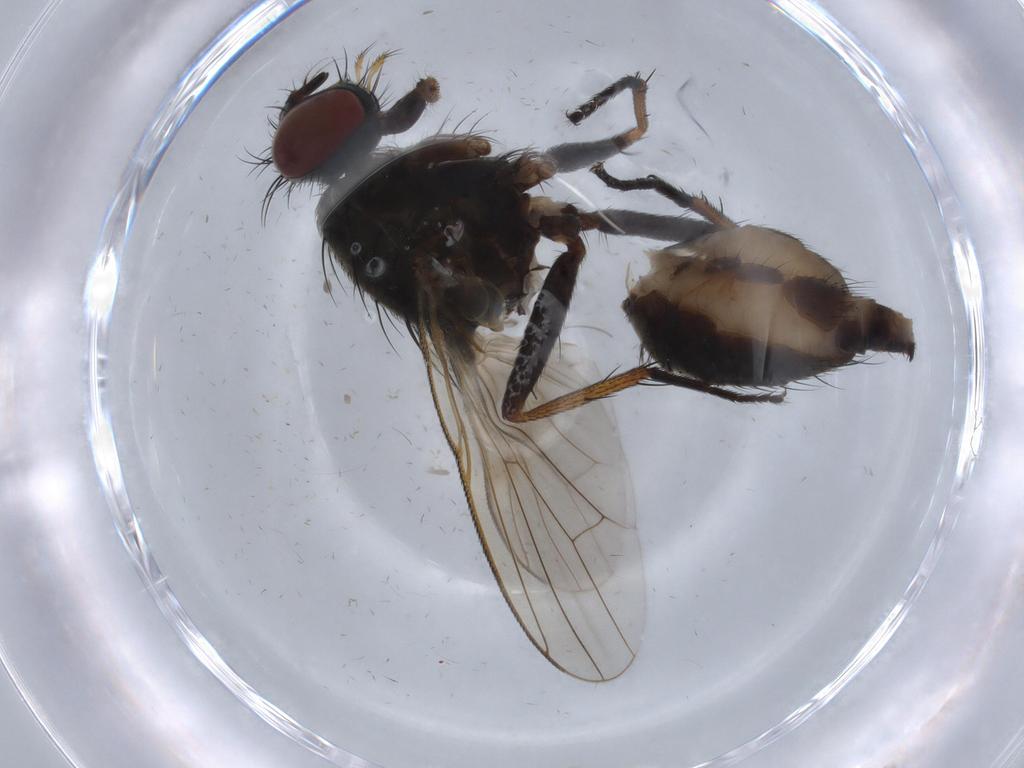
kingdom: Animalia
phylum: Arthropoda
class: Insecta
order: Diptera
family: Muscidae
